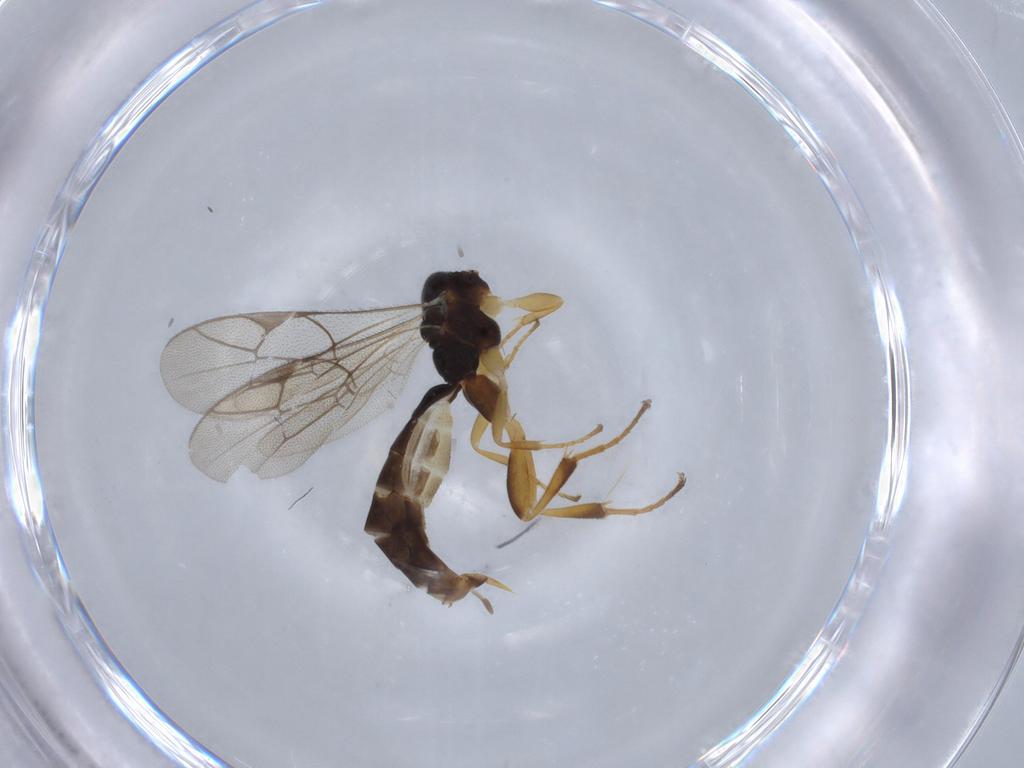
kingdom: Animalia
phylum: Arthropoda
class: Insecta
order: Hymenoptera
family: Ichneumonidae
